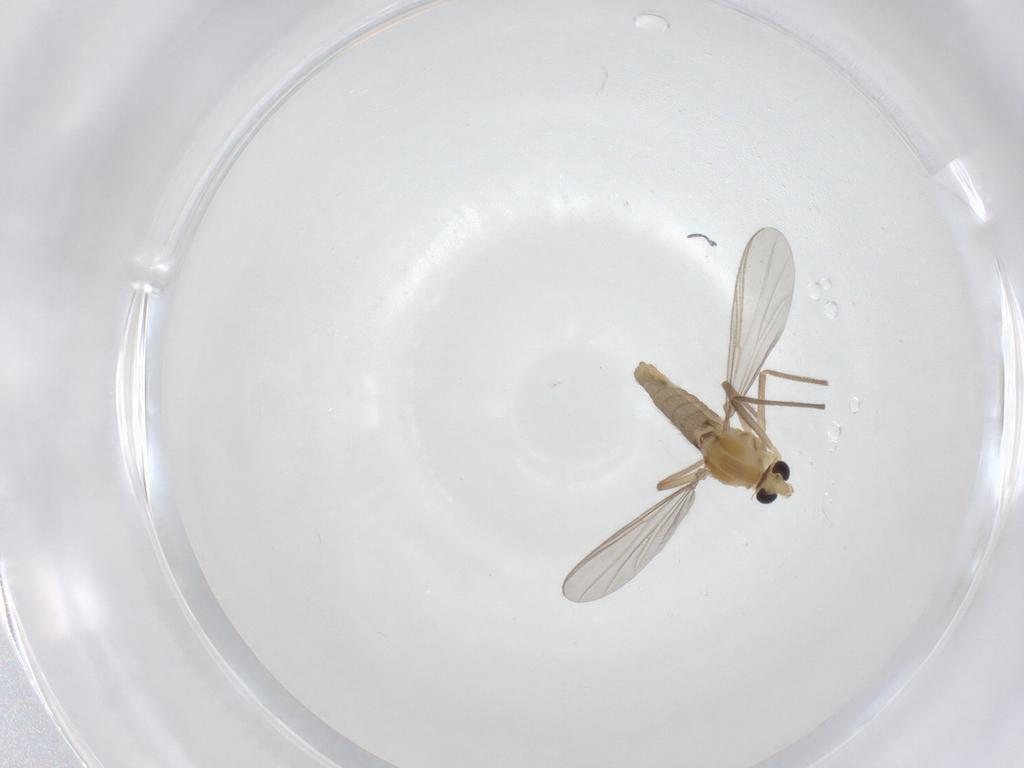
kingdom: Animalia
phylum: Arthropoda
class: Insecta
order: Diptera
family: Chironomidae
